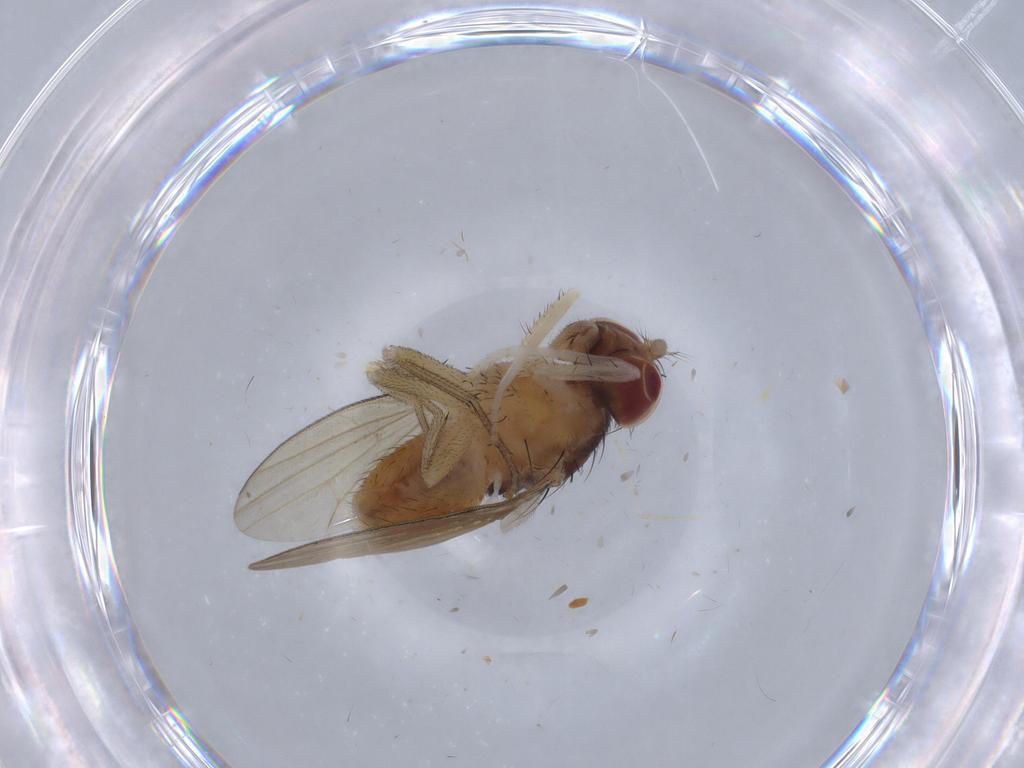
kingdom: Animalia
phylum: Arthropoda
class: Insecta
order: Diptera
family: Lauxaniidae
